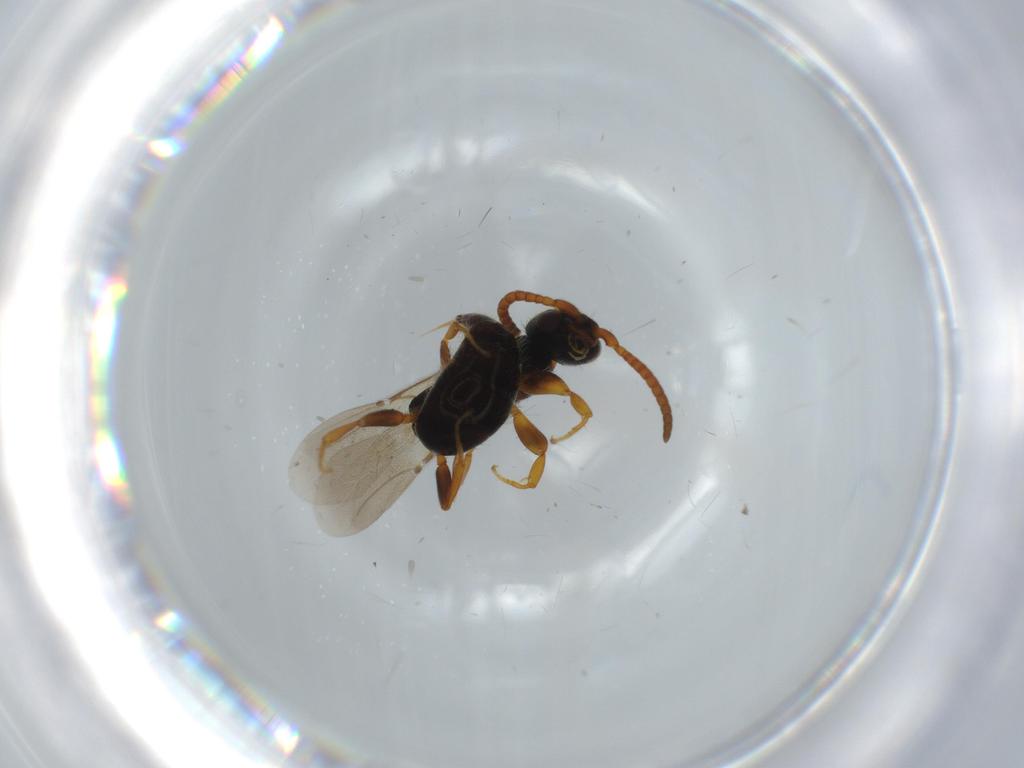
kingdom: Animalia
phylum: Arthropoda
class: Insecta
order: Hymenoptera
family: Bethylidae
